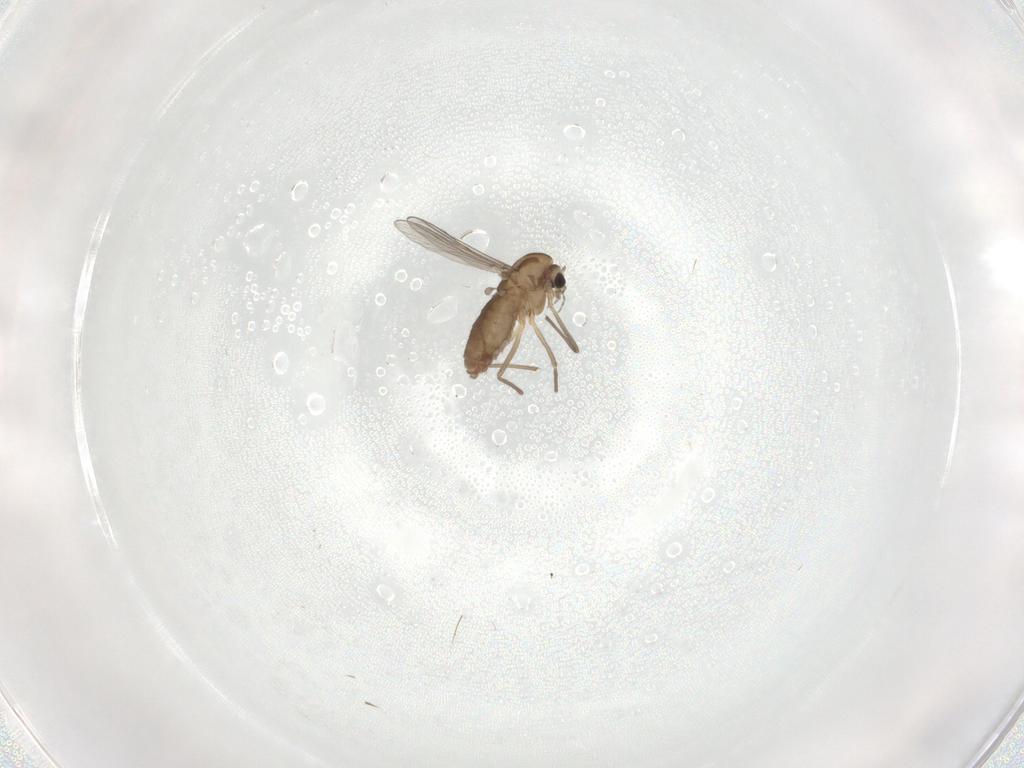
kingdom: Animalia
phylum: Arthropoda
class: Insecta
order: Diptera
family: Chironomidae
